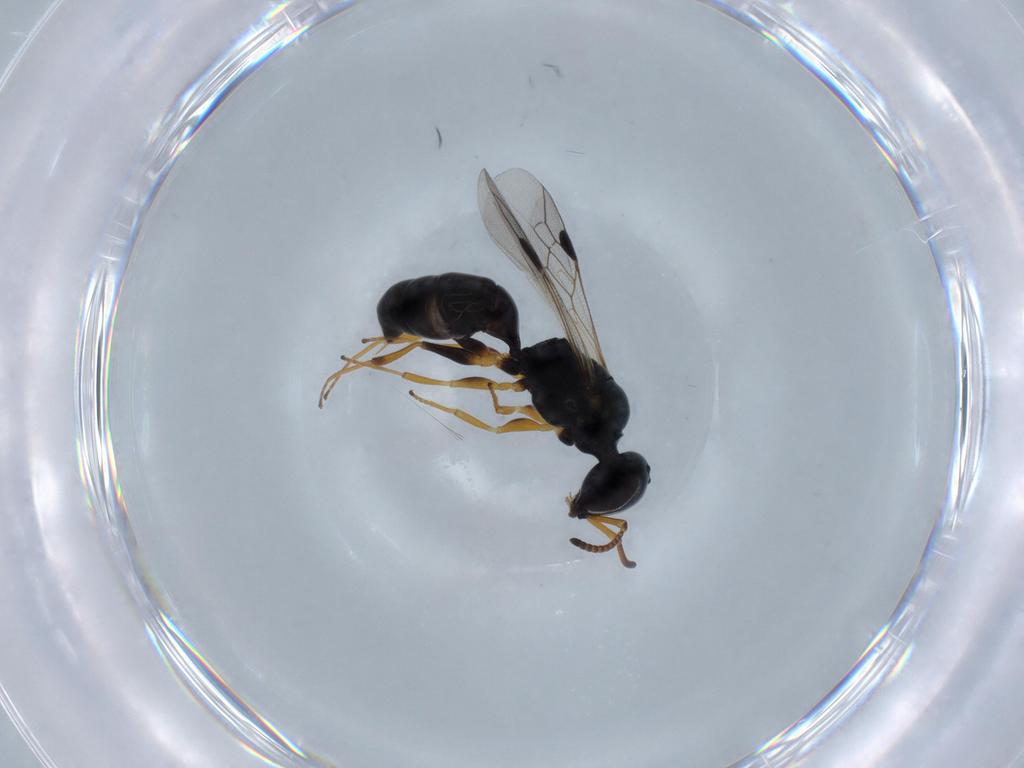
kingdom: Animalia
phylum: Arthropoda
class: Insecta
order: Hymenoptera
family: Pemphredonidae
